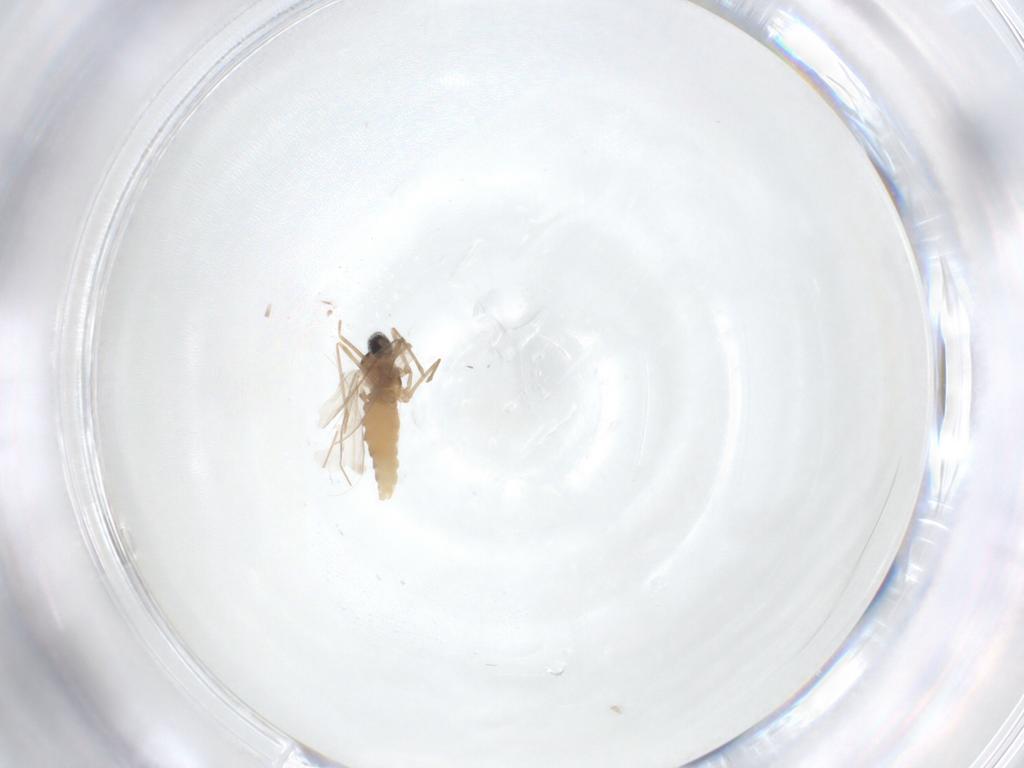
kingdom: Animalia
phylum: Arthropoda
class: Insecta
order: Diptera
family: Cecidomyiidae
